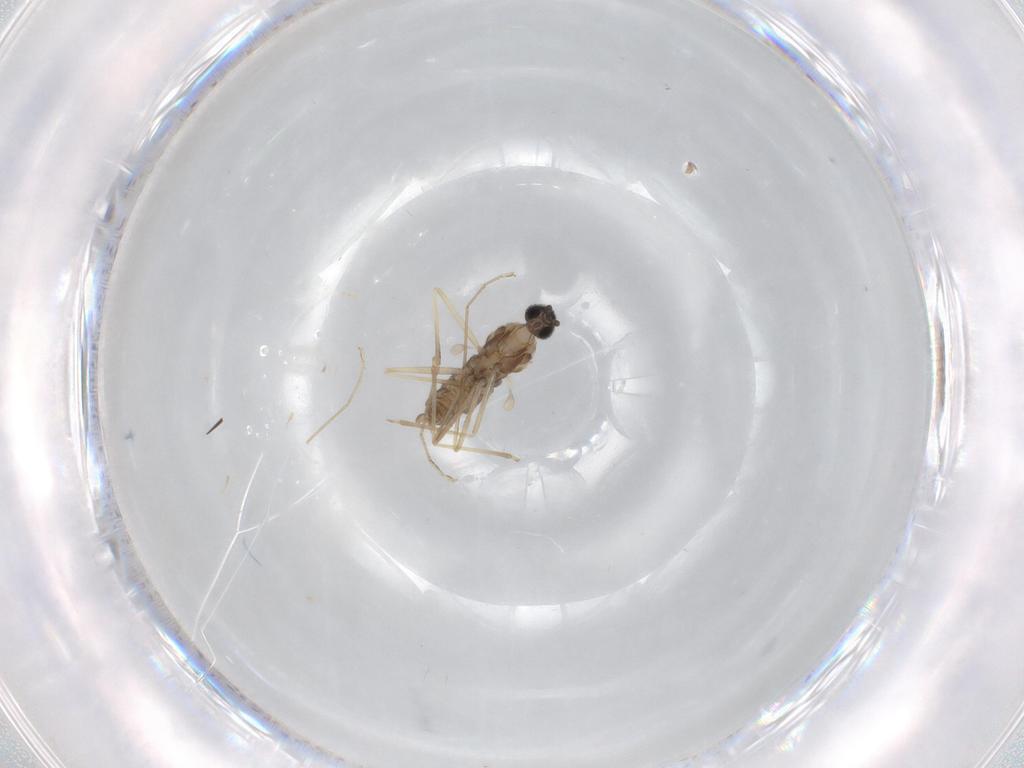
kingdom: Animalia
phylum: Arthropoda
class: Insecta
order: Diptera
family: Cecidomyiidae
